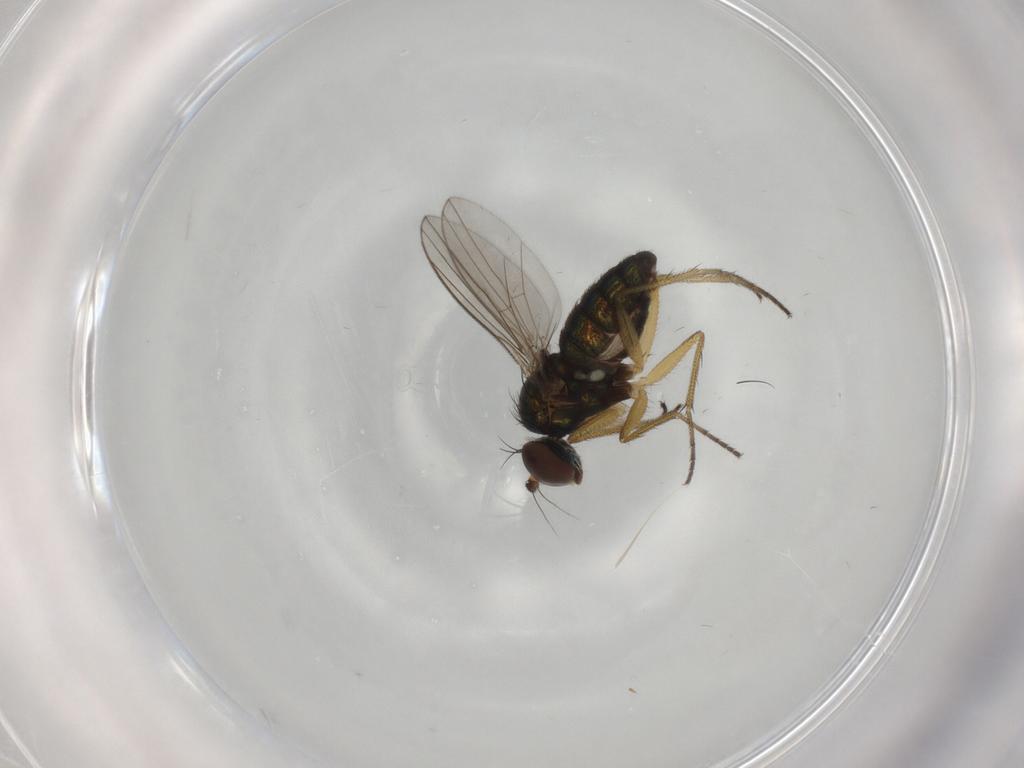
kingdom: Animalia
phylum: Arthropoda
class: Insecta
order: Diptera
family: Dolichopodidae
